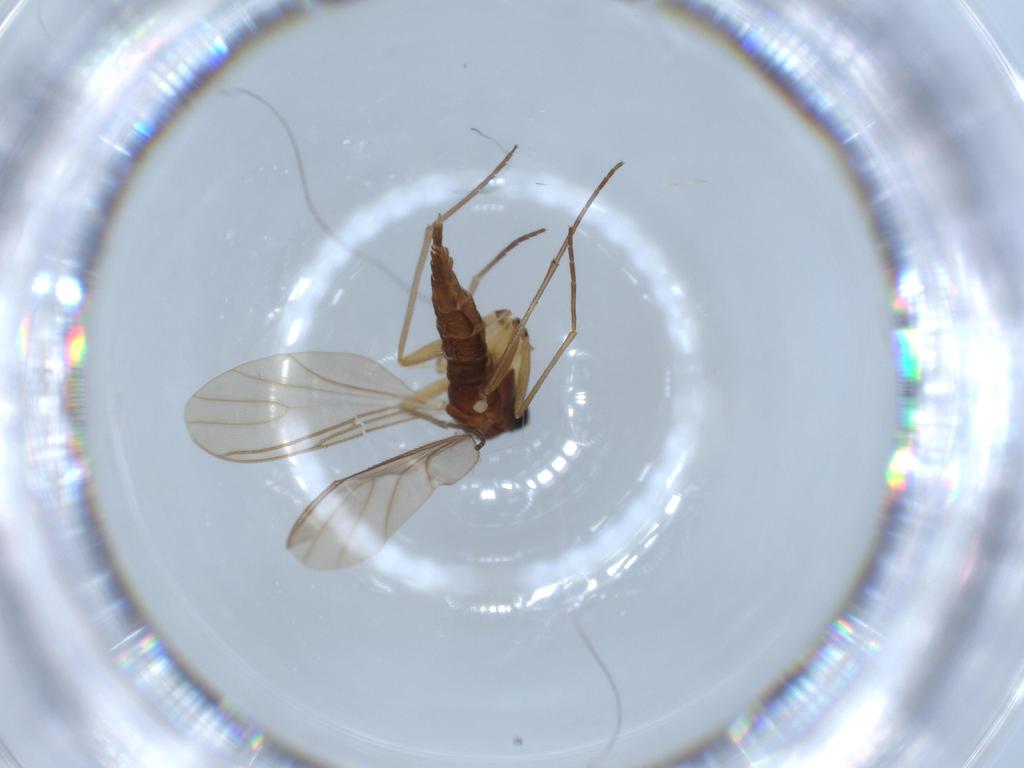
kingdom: Animalia
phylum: Arthropoda
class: Insecta
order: Diptera
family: Sciaridae
